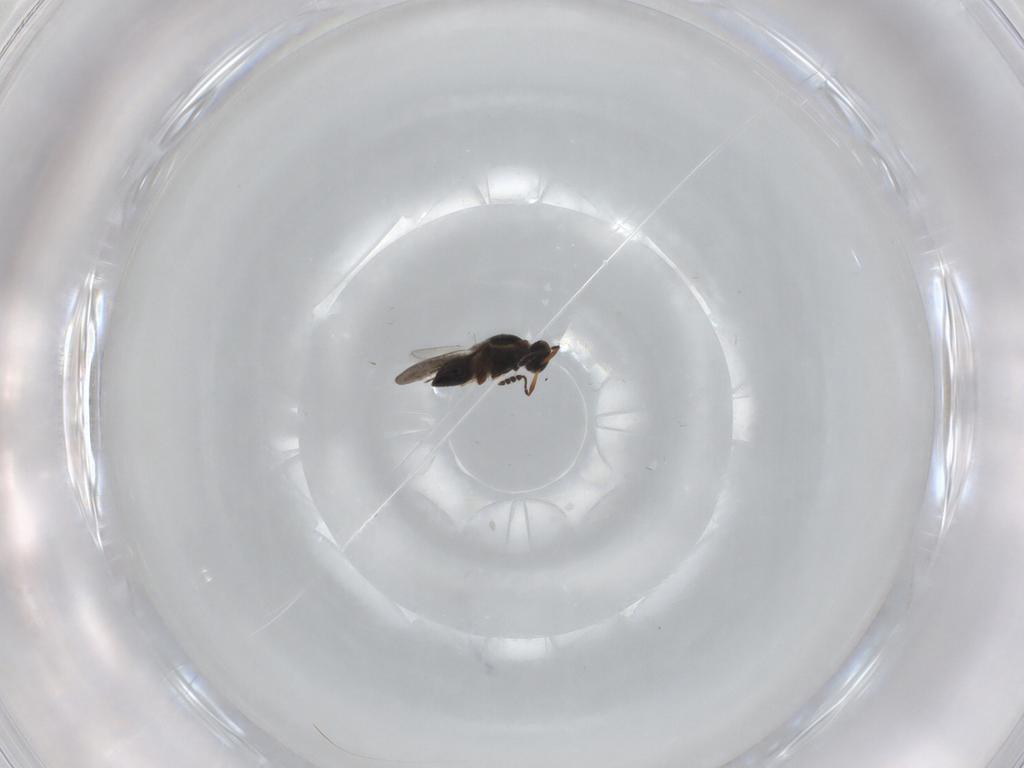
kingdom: Animalia
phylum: Arthropoda
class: Insecta
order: Hymenoptera
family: Platygastridae
